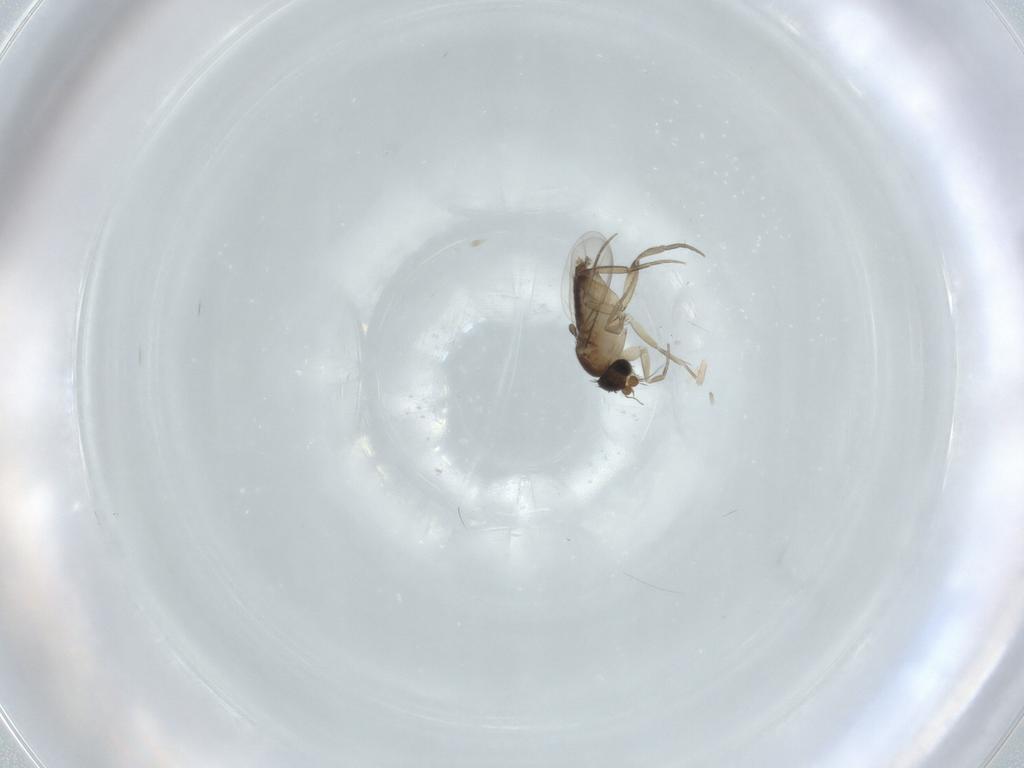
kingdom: Animalia
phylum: Arthropoda
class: Insecta
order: Diptera
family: Phoridae
